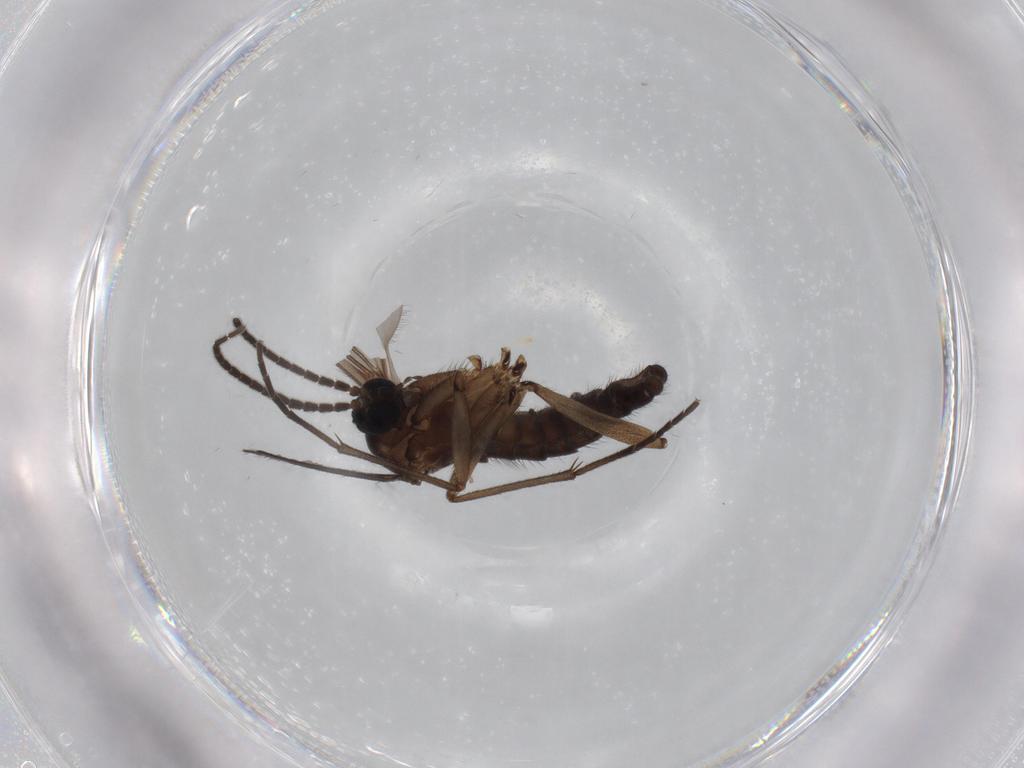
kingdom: Animalia
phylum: Arthropoda
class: Insecta
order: Diptera
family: Sciaridae
